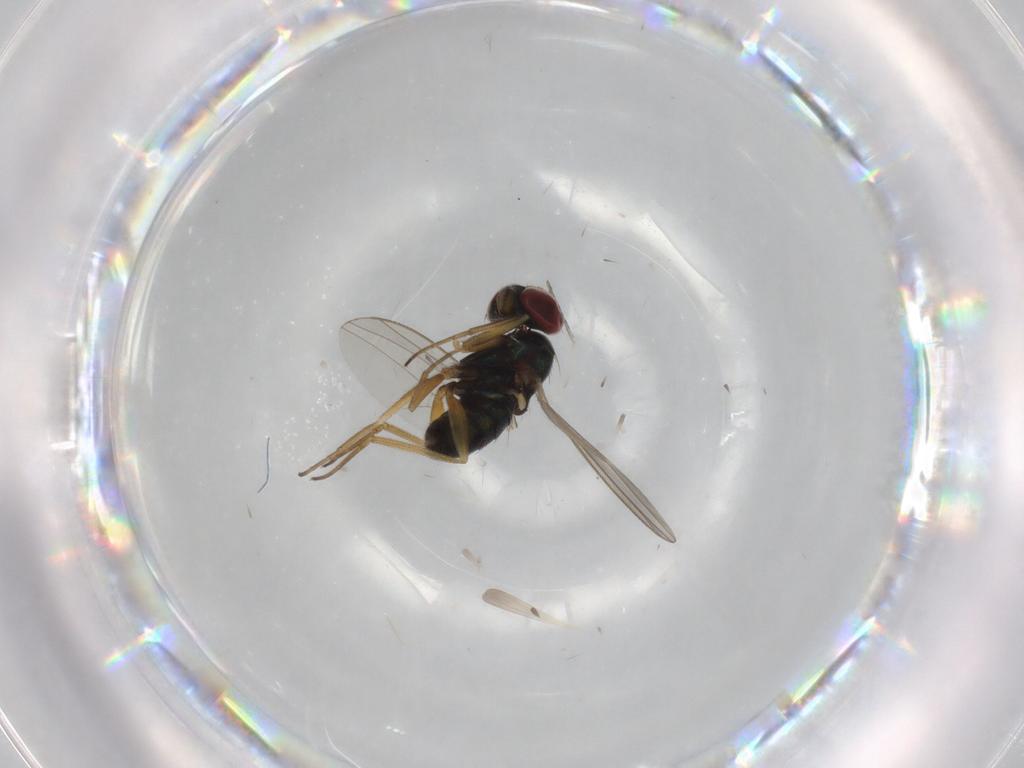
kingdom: Animalia
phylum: Arthropoda
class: Insecta
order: Diptera
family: Dolichopodidae
